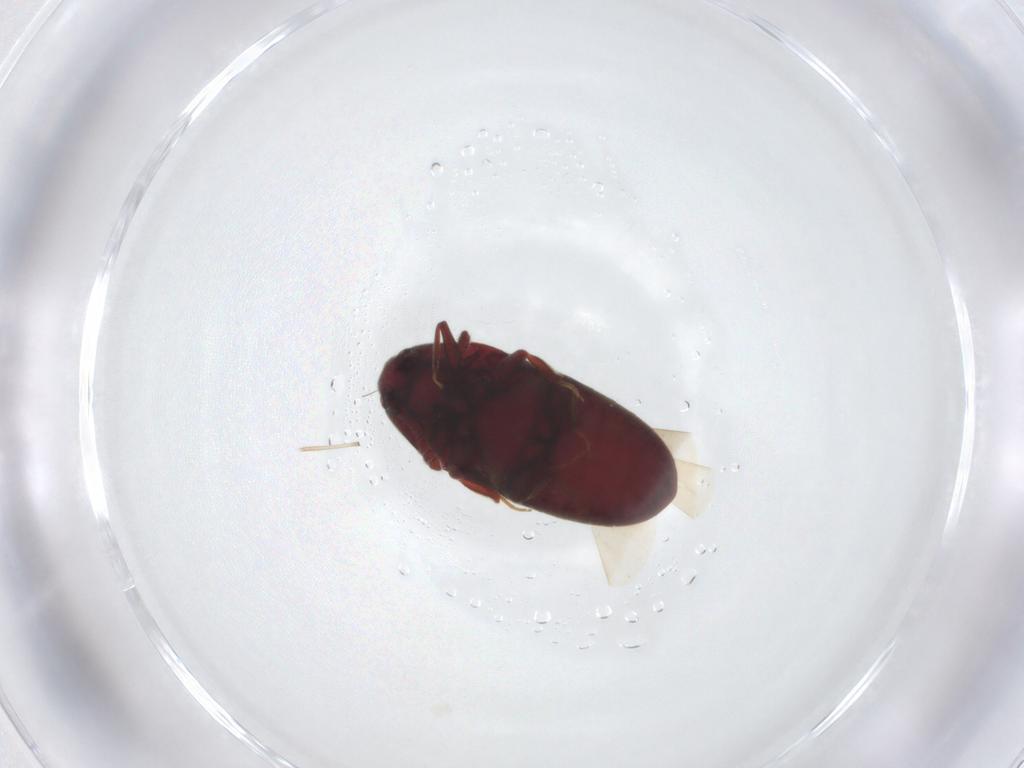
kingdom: Animalia
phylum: Arthropoda
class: Insecta
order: Coleoptera
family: Throscidae
